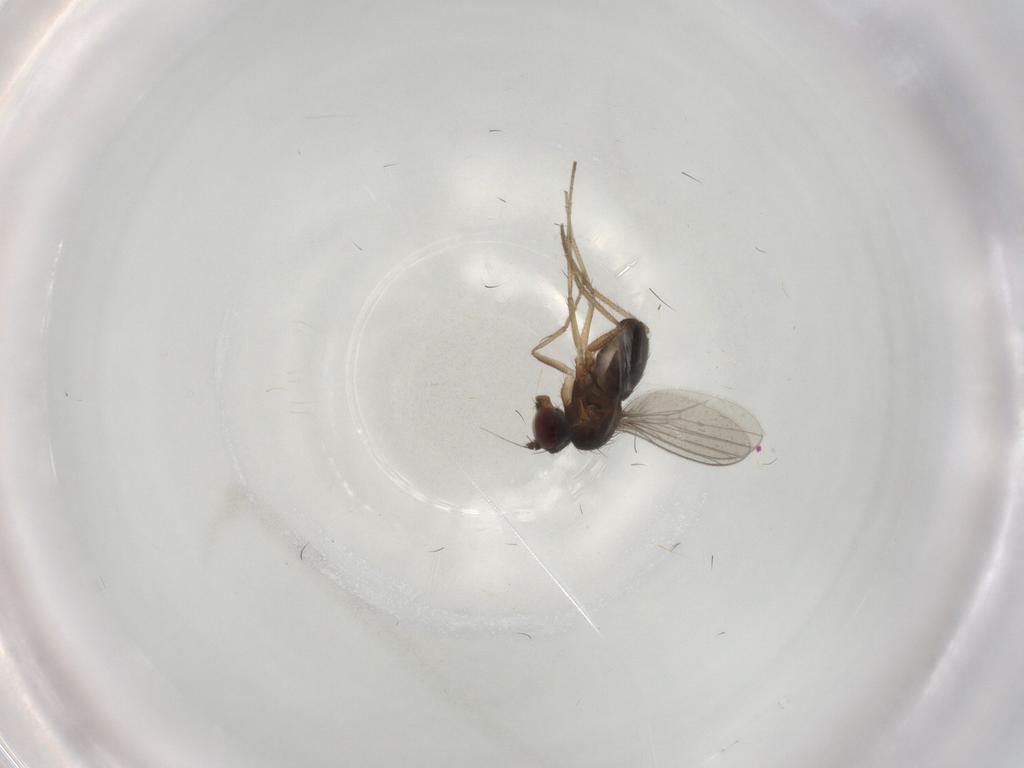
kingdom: Animalia
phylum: Arthropoda
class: Insecta
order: Diptera
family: Dolichopodidae
